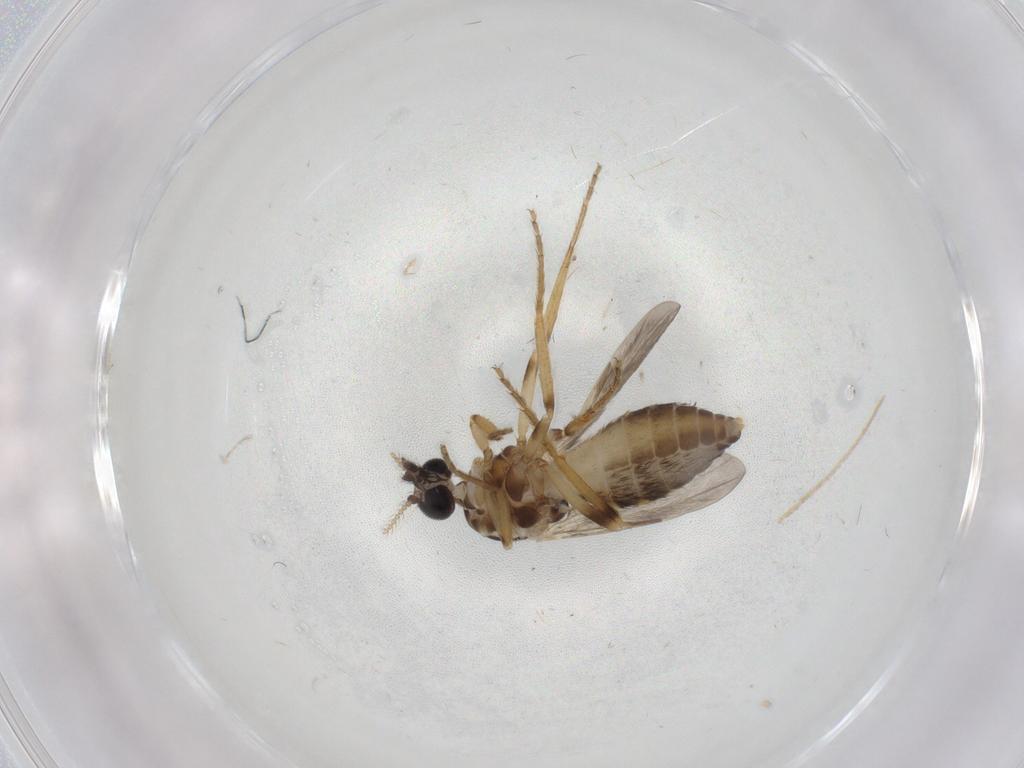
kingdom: Animalia
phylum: Arthropoda
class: Insecta
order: Diptera
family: Ceratopogonidae
